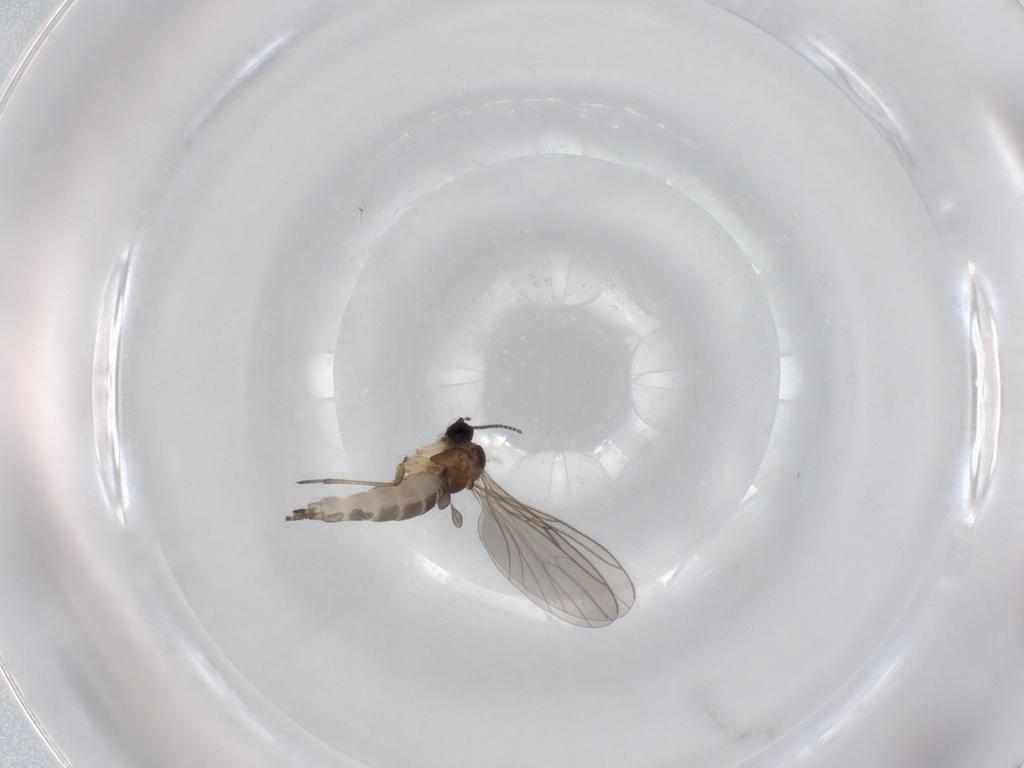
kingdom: Animalia
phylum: Arthropoda
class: Insecta
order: Diptera
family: Sciaridae
